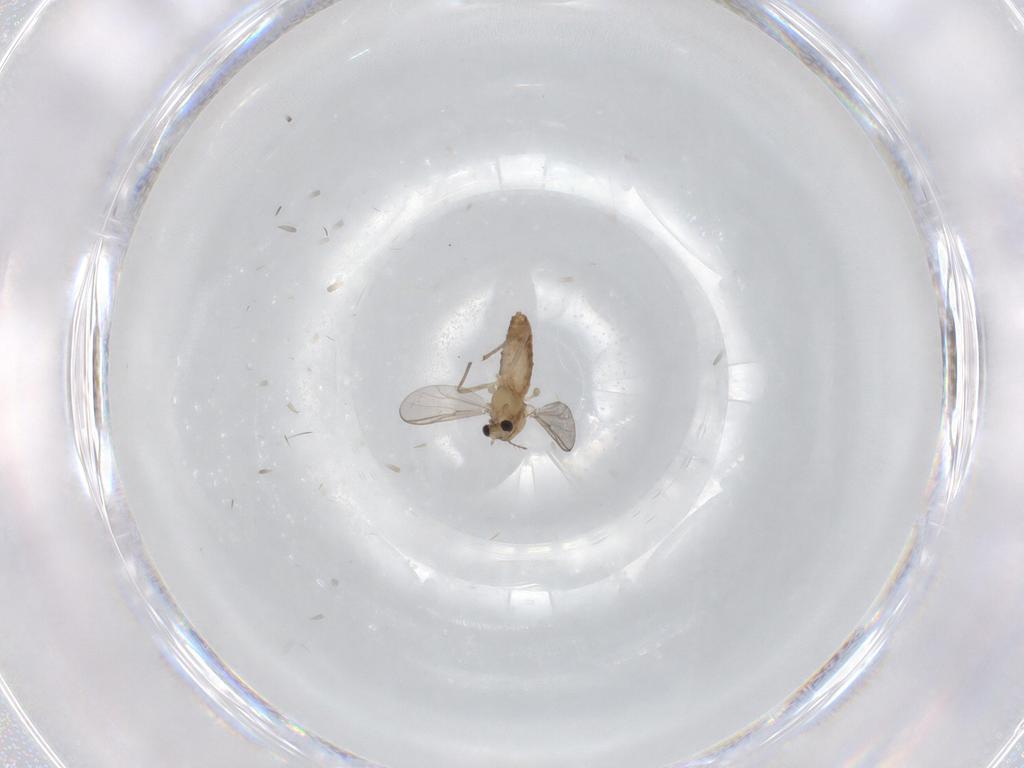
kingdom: Animalia
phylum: Arthropoda
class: Insecta
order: Diptera
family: Chironomidae
